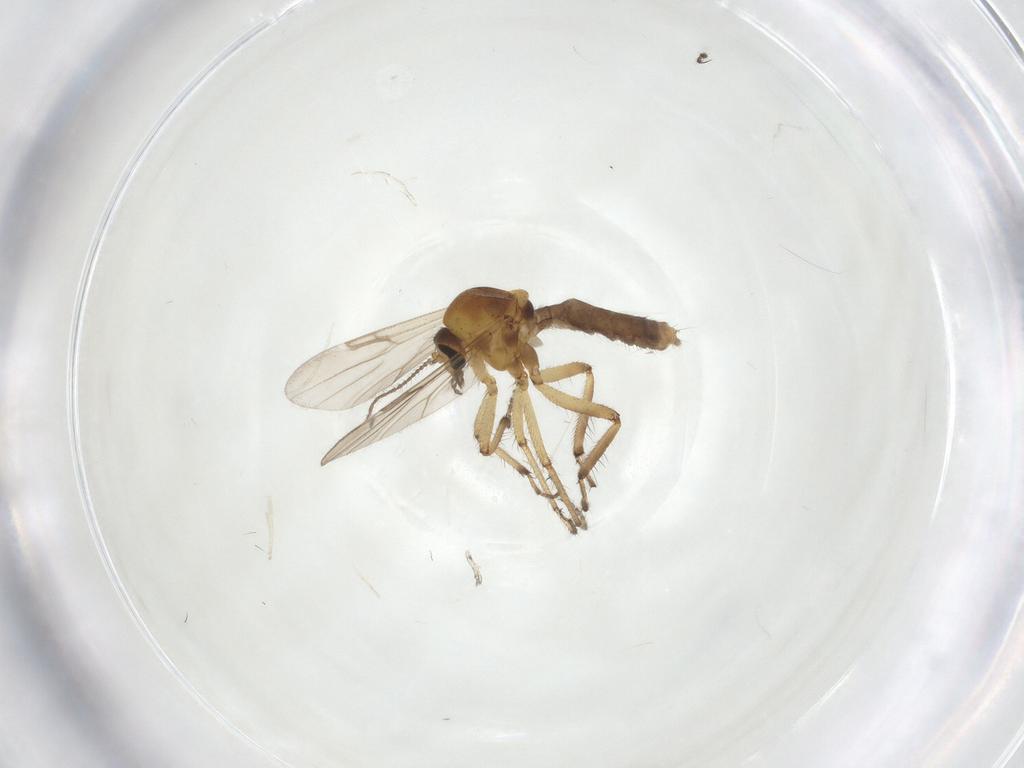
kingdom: Animalia
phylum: Arthropoda
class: Insecta
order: Diptera
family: Ceratopogonidae
